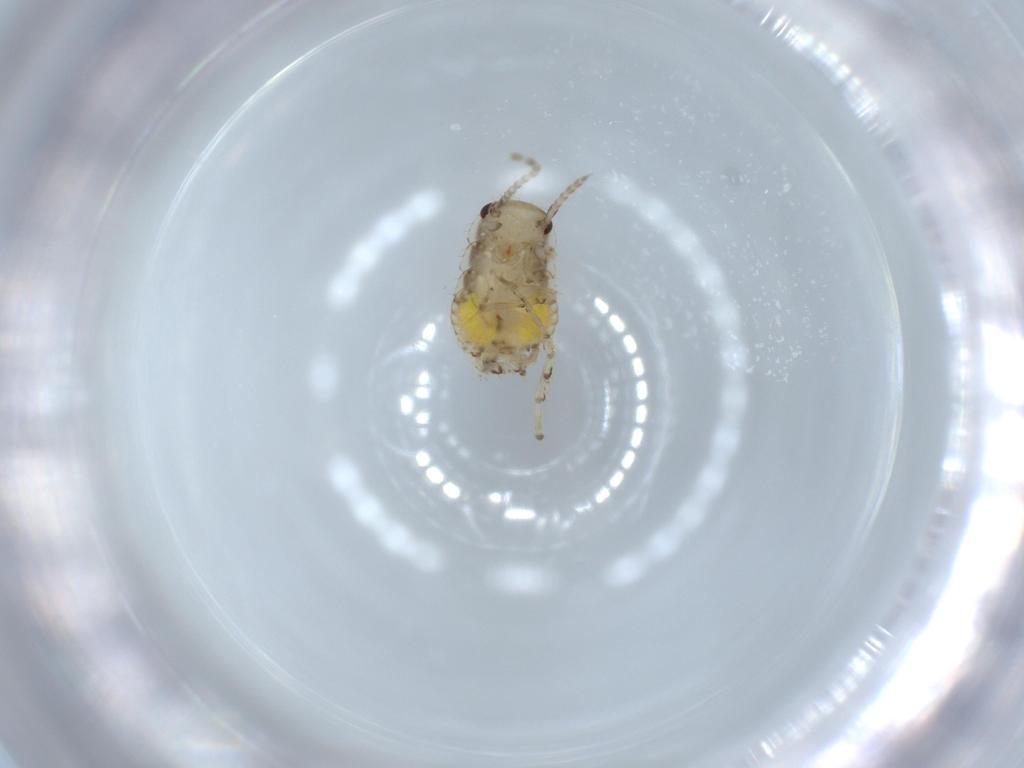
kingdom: Animalia
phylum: Arthropoda
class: Insecta
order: Blattodea
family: Ectobiidae
